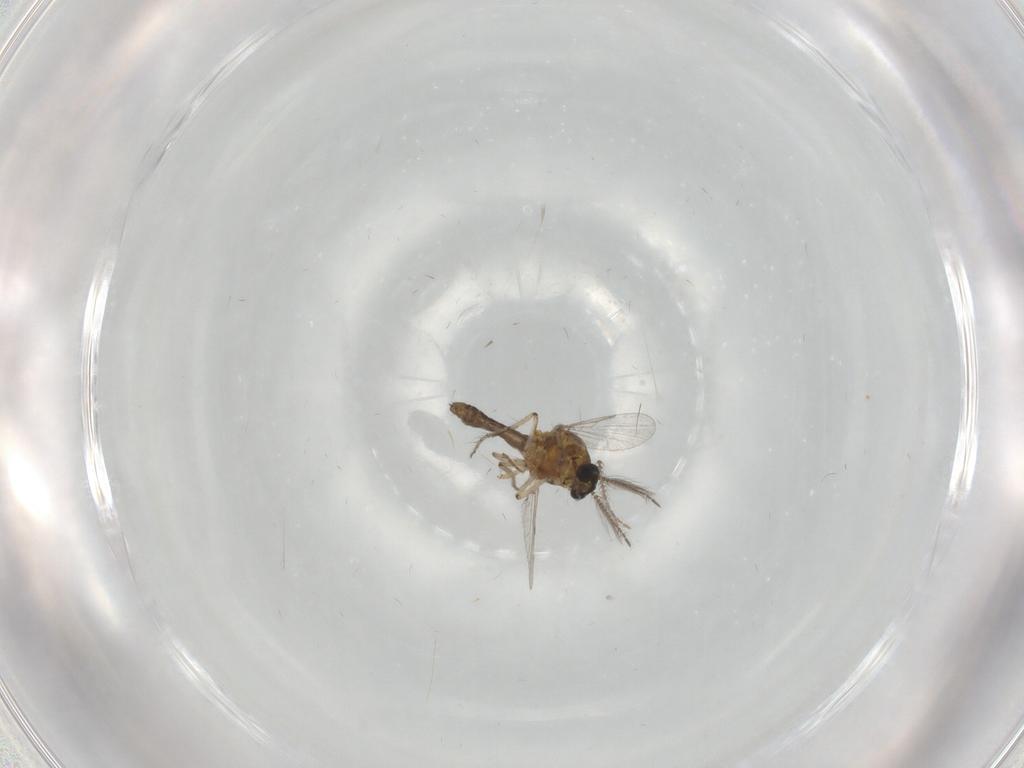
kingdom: Animalia
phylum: Arthropoda
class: Insecta
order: Diptera
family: Ceratopogonidae
